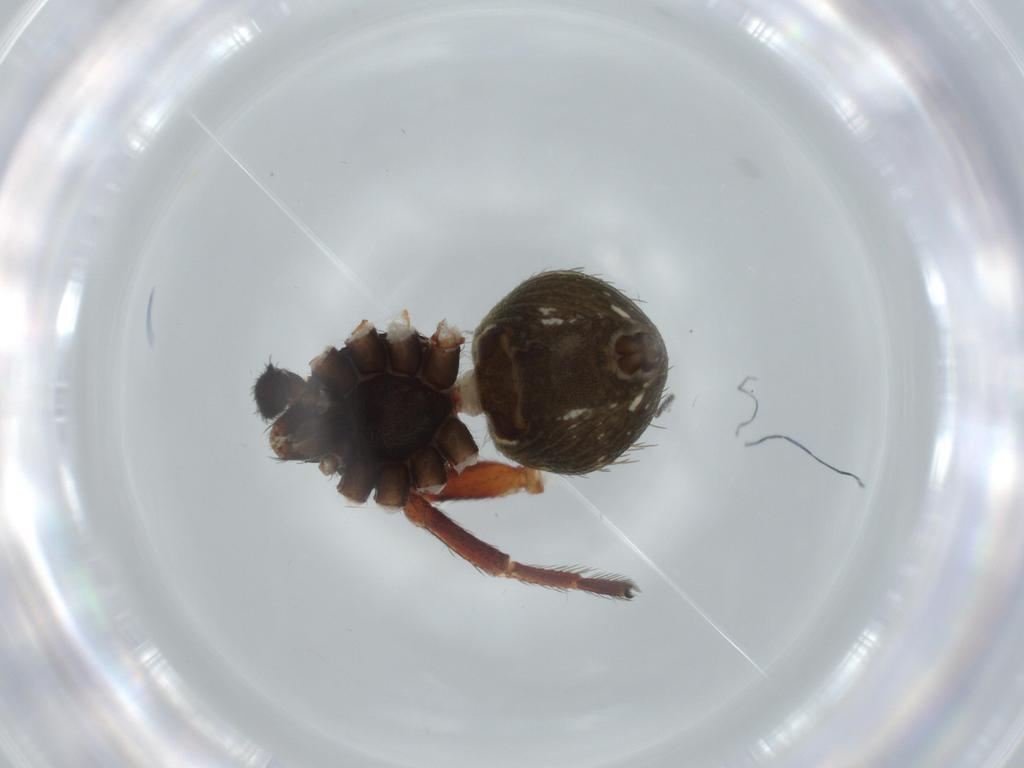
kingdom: Animalia
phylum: Arthropoda
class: Arachnida
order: Araneae
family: Thomisidae
